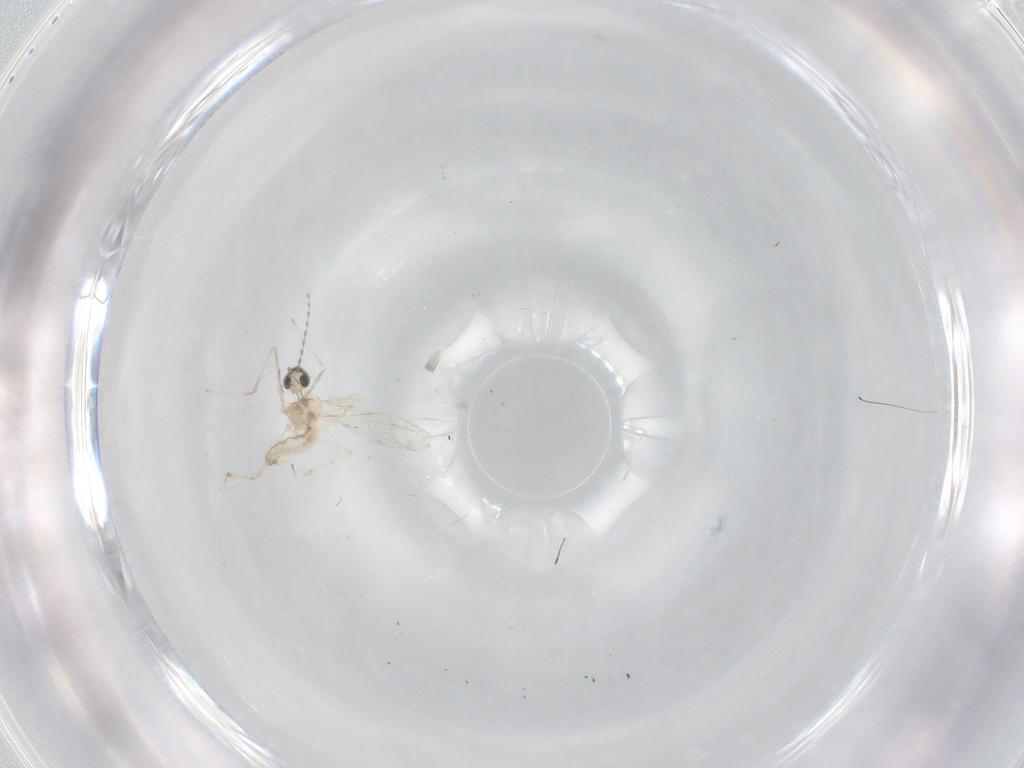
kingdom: Animalia
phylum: Arthropoda
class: Insecta
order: Diptera
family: Cecidomyiidae
